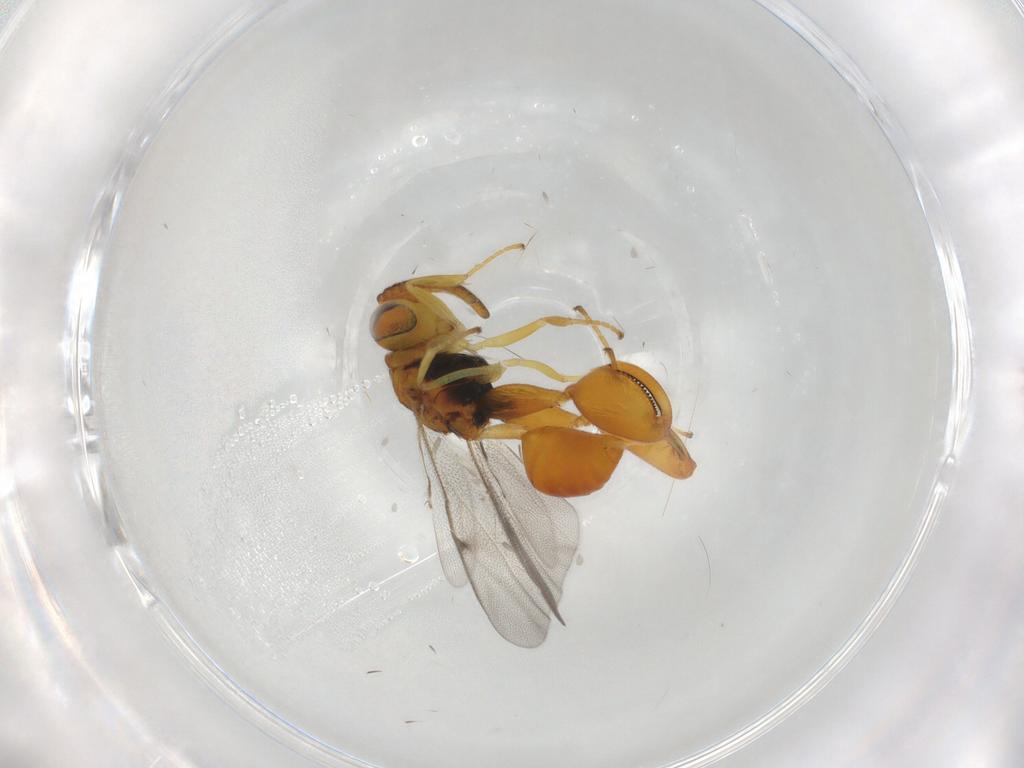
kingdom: Animalia
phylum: Arthropoda
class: Insecta
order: Hymenoptera
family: Chalcididae
